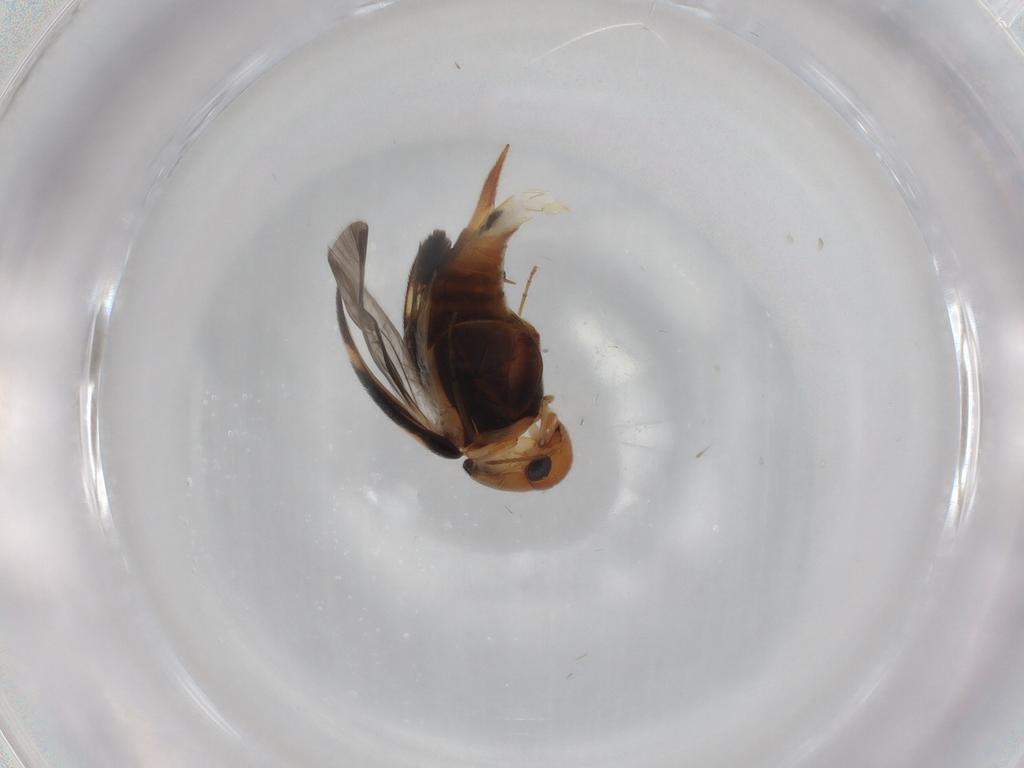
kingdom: Animalia
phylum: Arthropoda
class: Insecta
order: Coleoptera
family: Mordellidae
